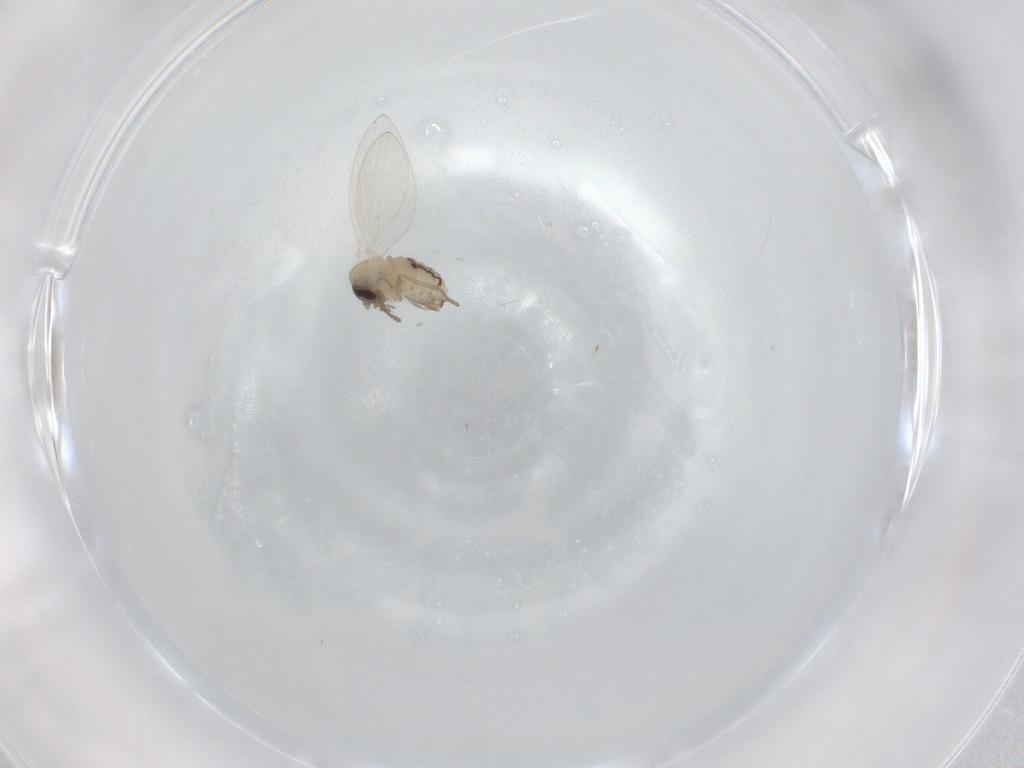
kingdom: Animalia
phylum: Arthropoda
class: Insecta
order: Diptera
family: Psychodidae
